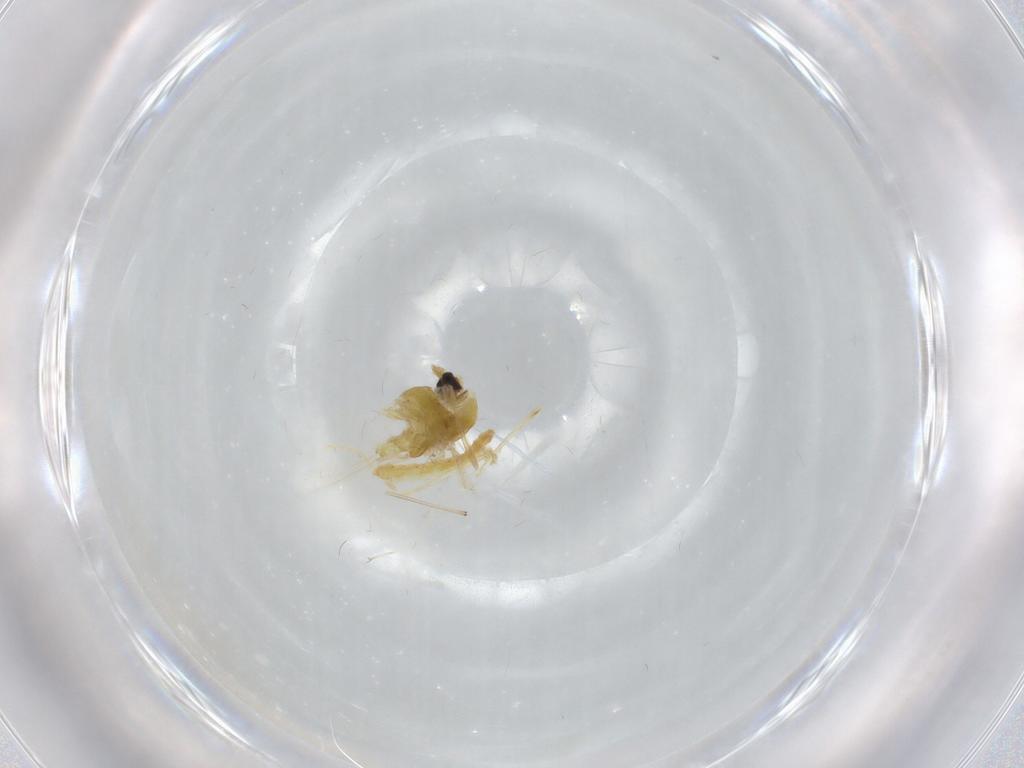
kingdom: Animalia
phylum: Arthropoda
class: Insecta
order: Diptera
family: Chironomidae
